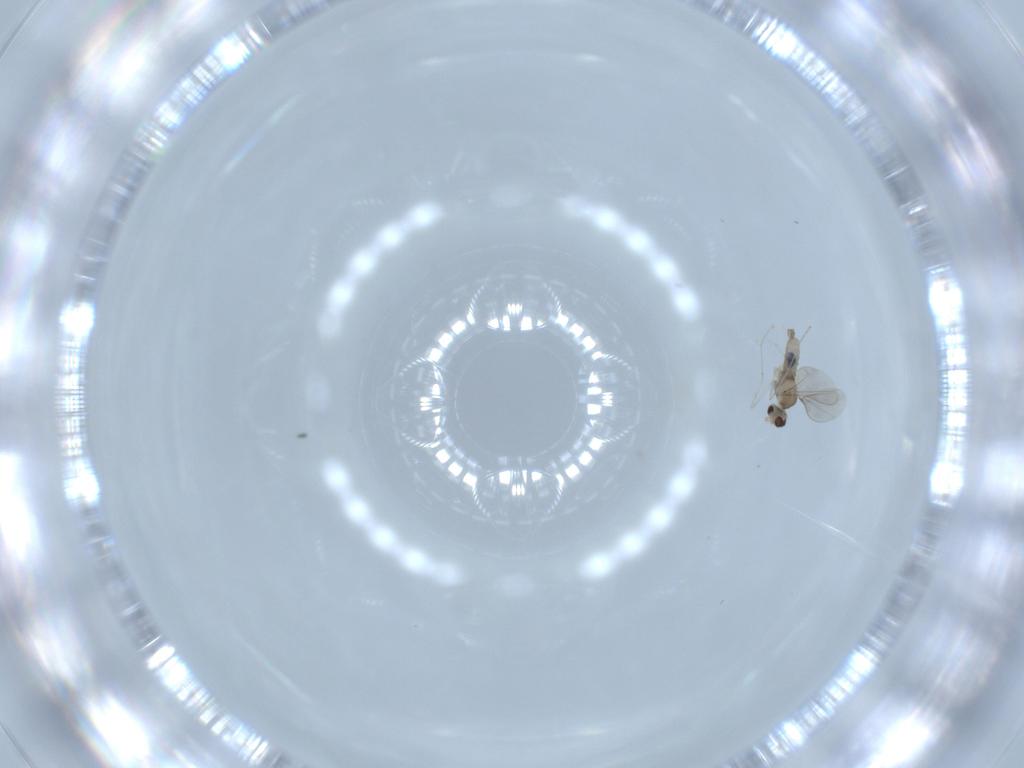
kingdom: Animalia
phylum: Arthropoda
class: Insecta
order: Diptera
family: Cecidomyiidae
